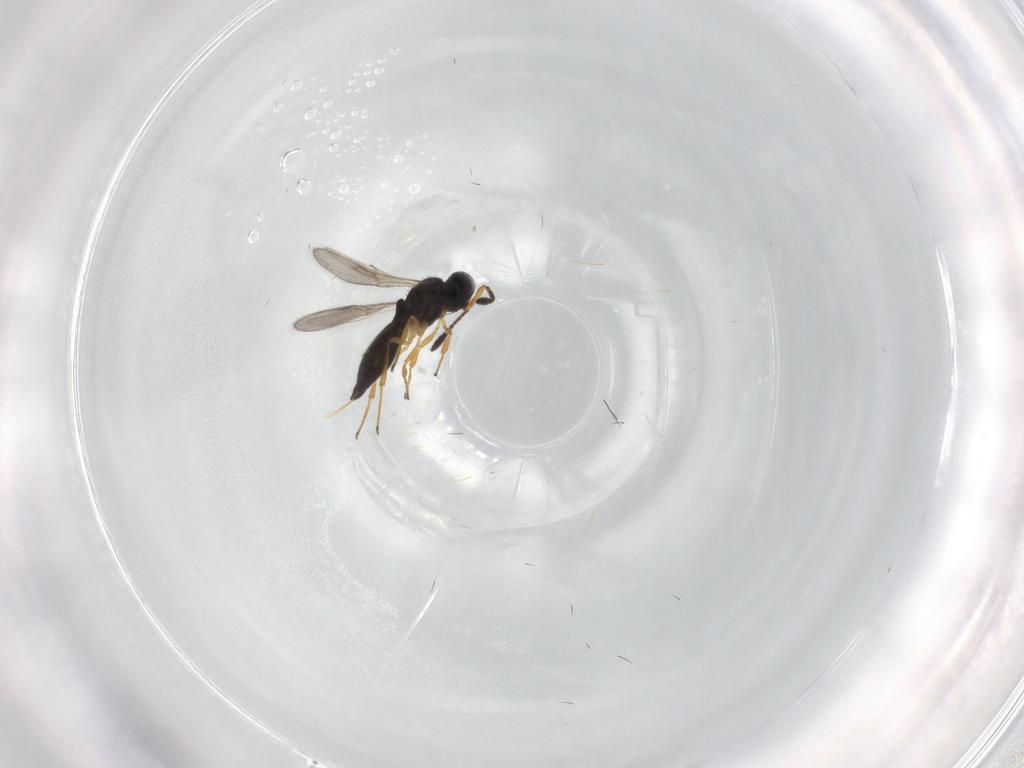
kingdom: Animalia
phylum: Arthropoda
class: Insecta
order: Hymenoptera
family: Scelionidae
